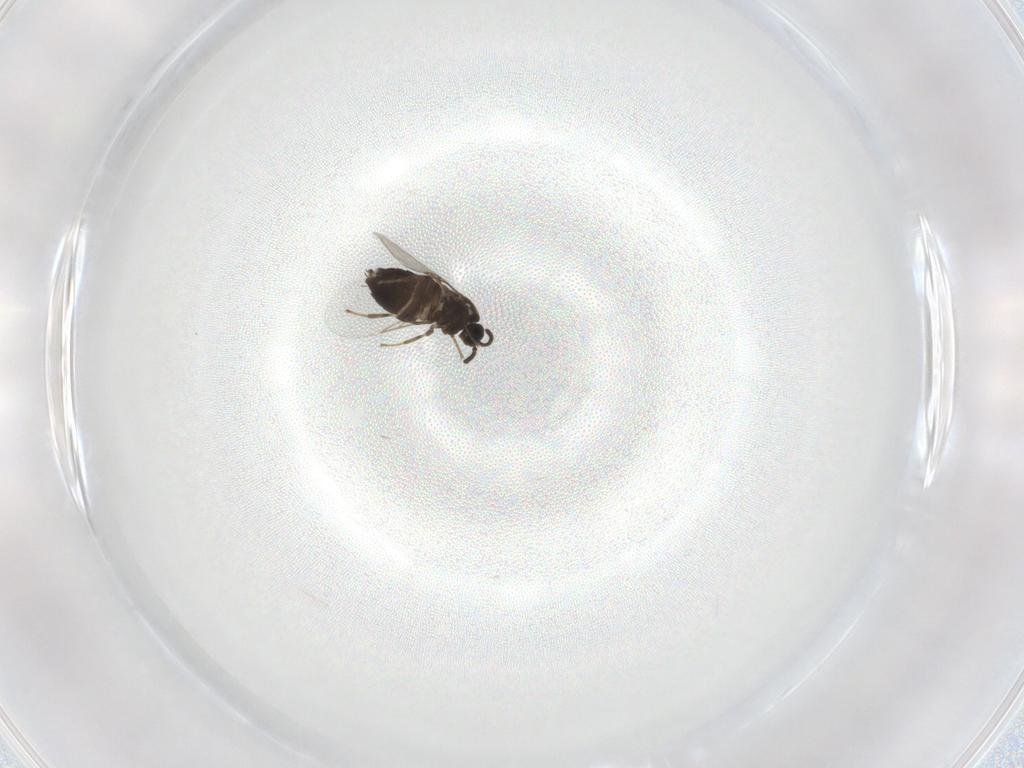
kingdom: Animalia
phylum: Arthropoda
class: Insecta
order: Diptera
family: Scatopsidae
